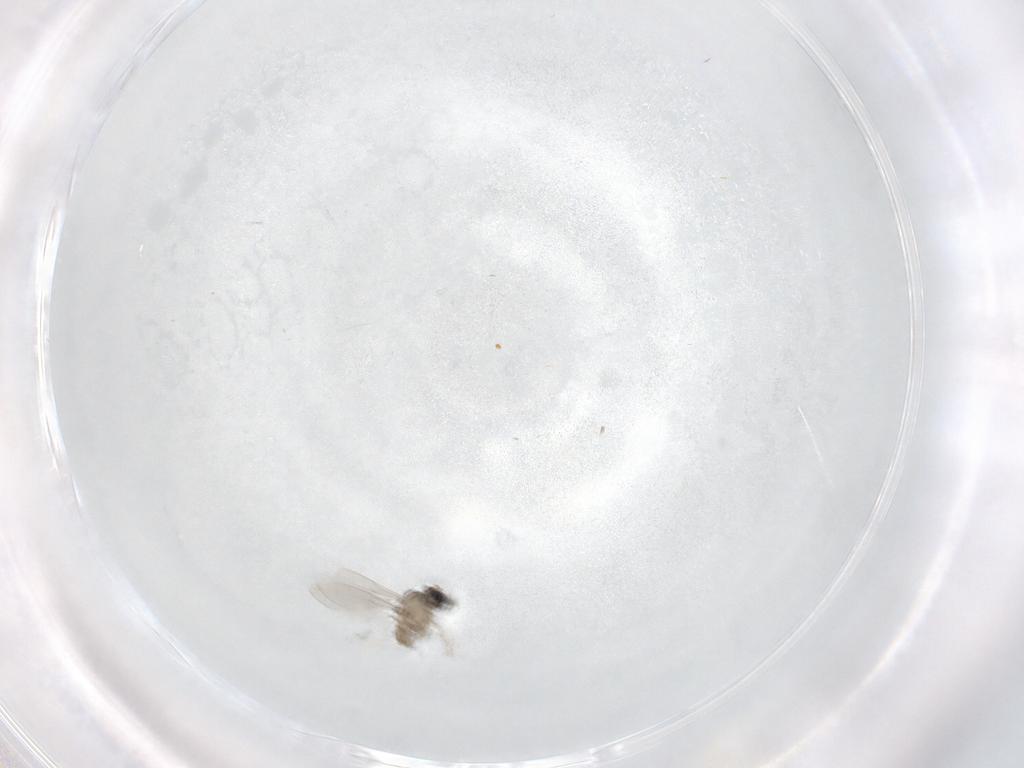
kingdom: Animalia
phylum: Arthropoda
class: Insecta
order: Diptera
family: Cecidomyiidae
